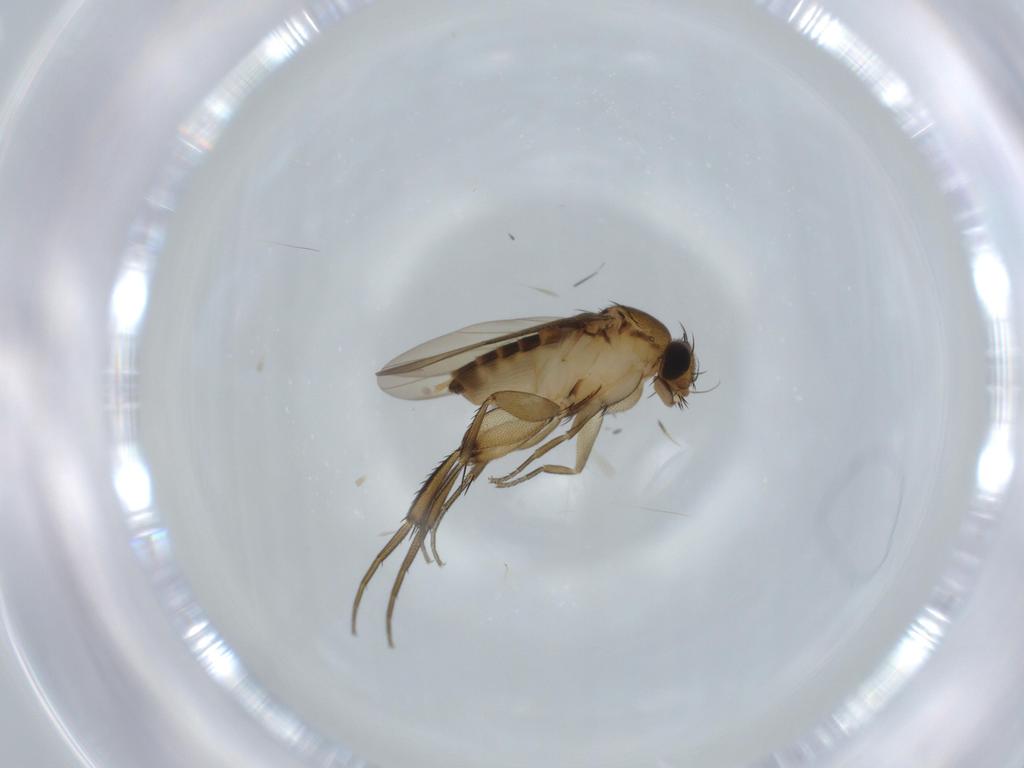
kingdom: Animalia
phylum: Arthropoda
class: Insecta
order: Diptera
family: Phoridae
